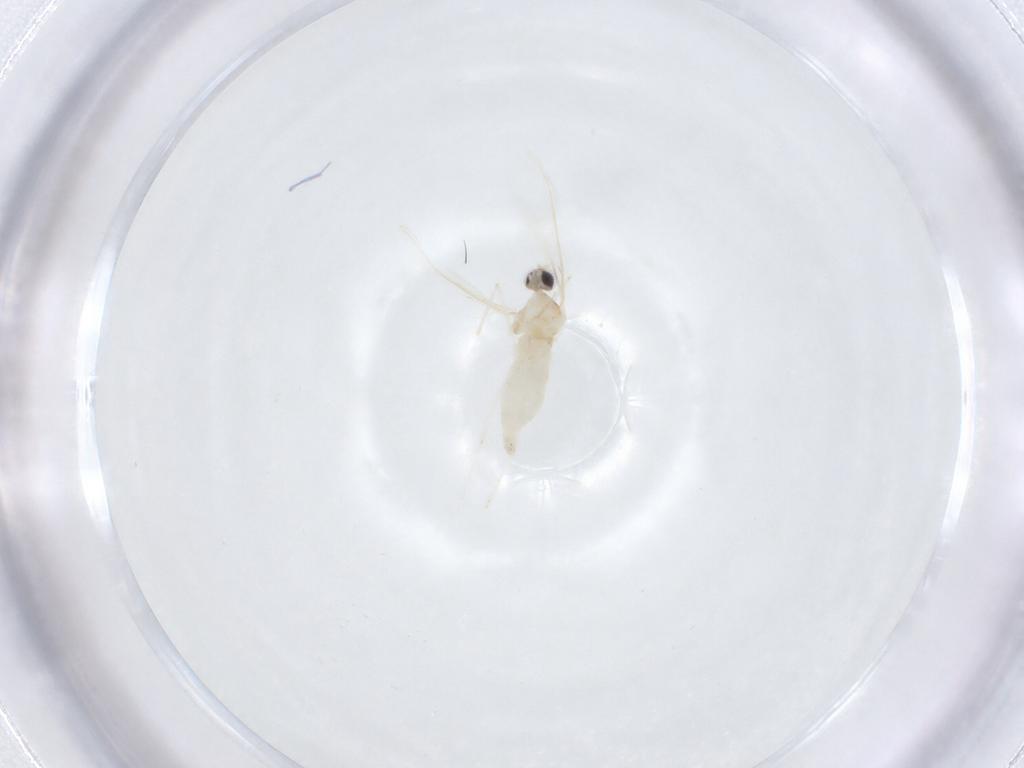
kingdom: Animalia
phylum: Arthropoda
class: Insecta
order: Diptera
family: Cecidomyiidae
